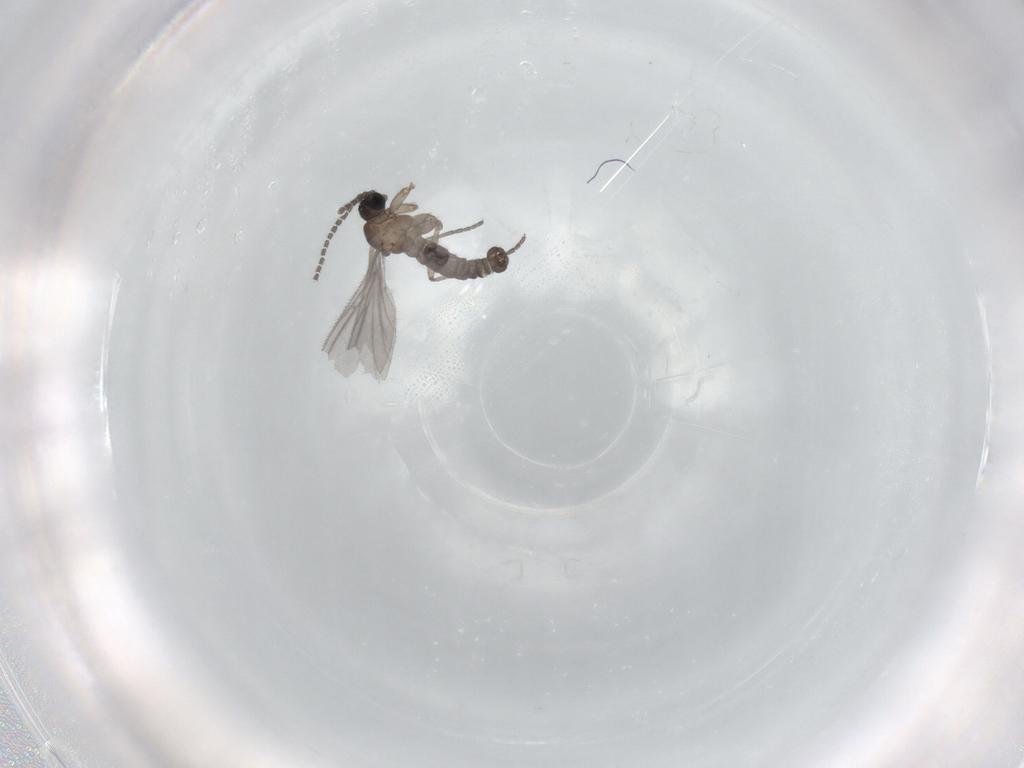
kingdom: Animalia
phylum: Arthropoda
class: Insecta
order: Diptera
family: Sciaridae
